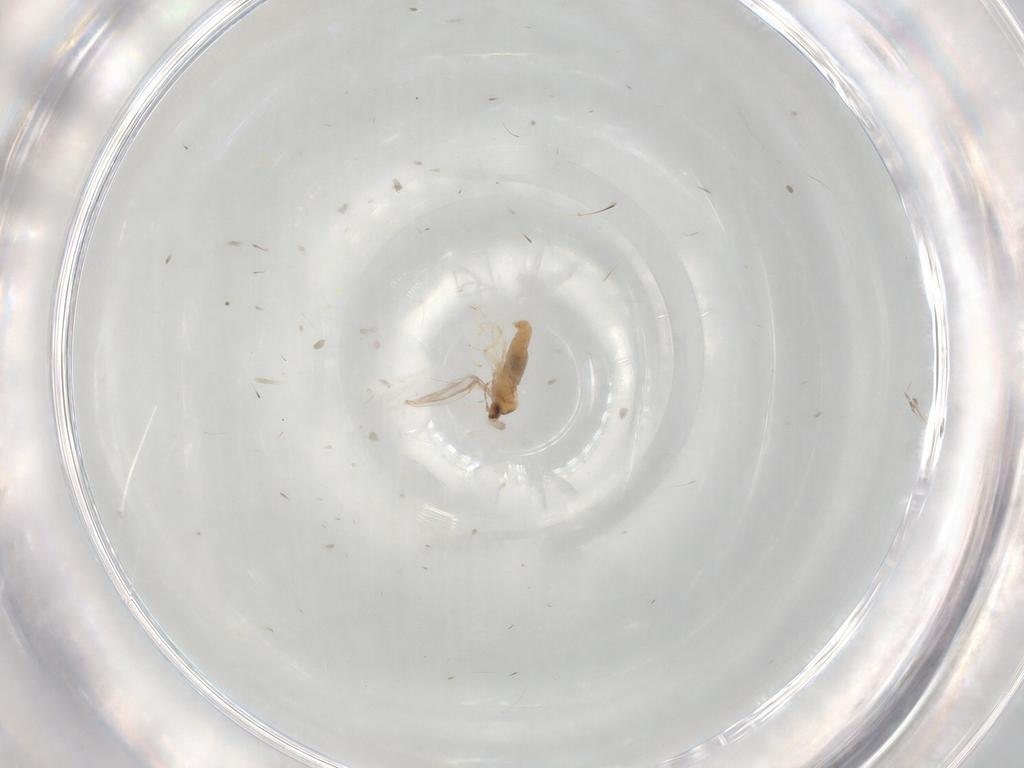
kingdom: Animalia
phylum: Arthropoda
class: Insecta
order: Diptera
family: Cecidomyiidae
